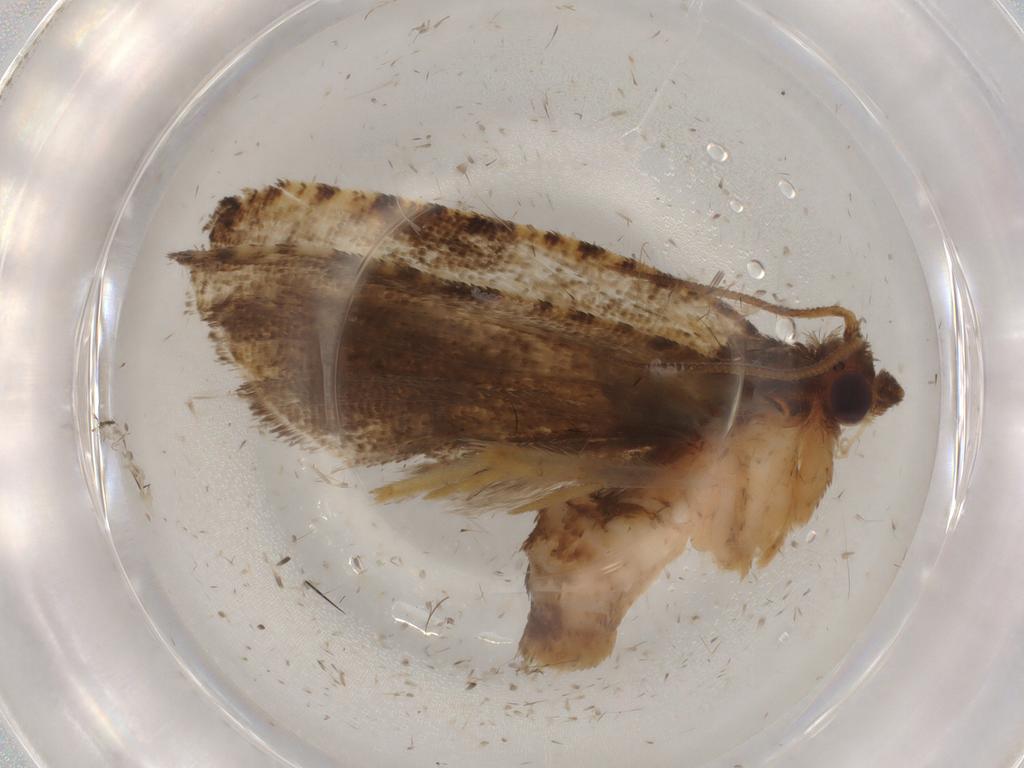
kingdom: Animalia
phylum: Arthropoda
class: Insecta
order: Lepidoptera
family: Tortricidae
